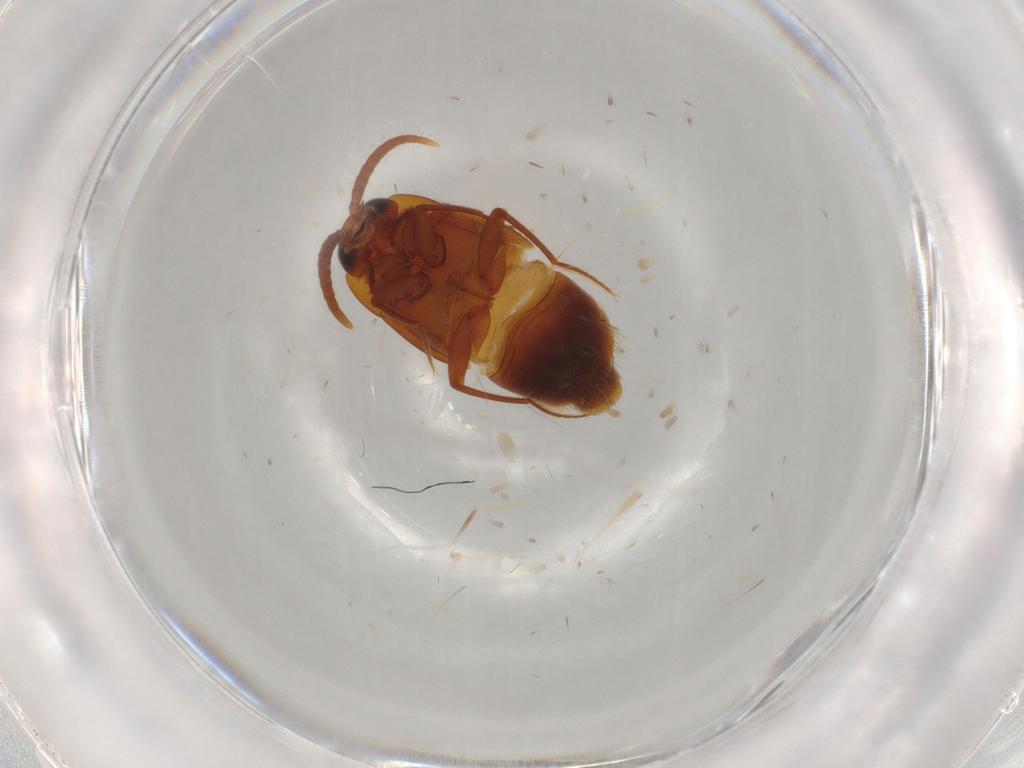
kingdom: Animalia
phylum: Arthropoda
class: Insecta
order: Coleoptera
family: Staphylinidae
